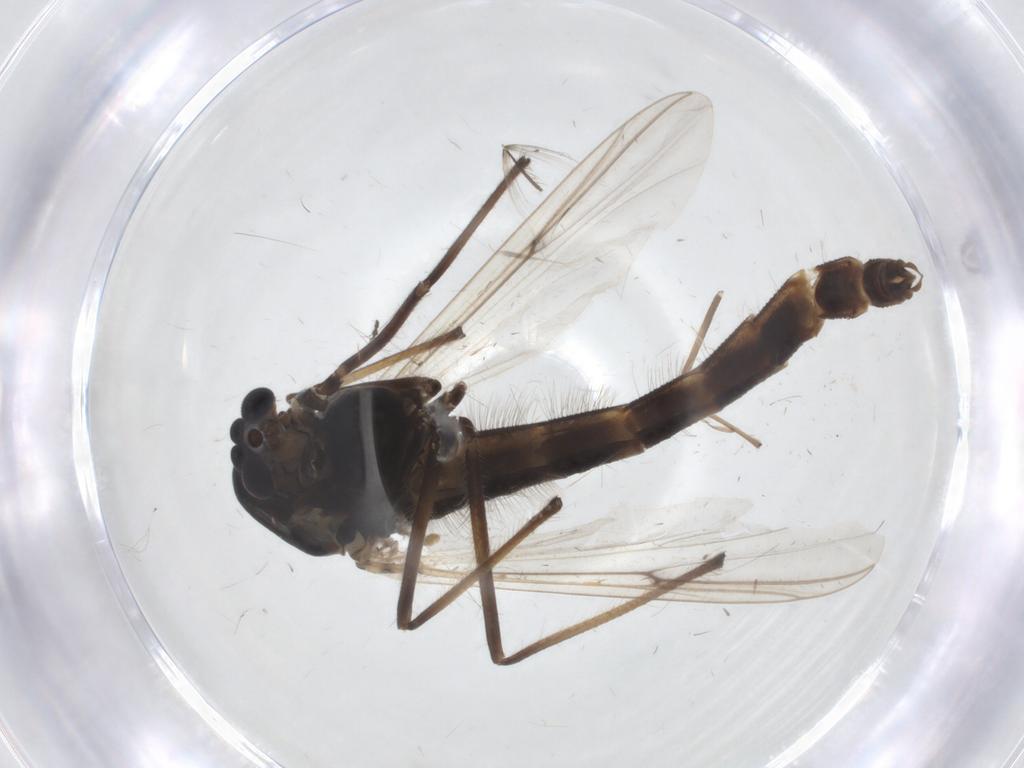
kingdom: Animalia
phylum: Arthropoda
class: Insecta
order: Diptera
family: Chironomidae
